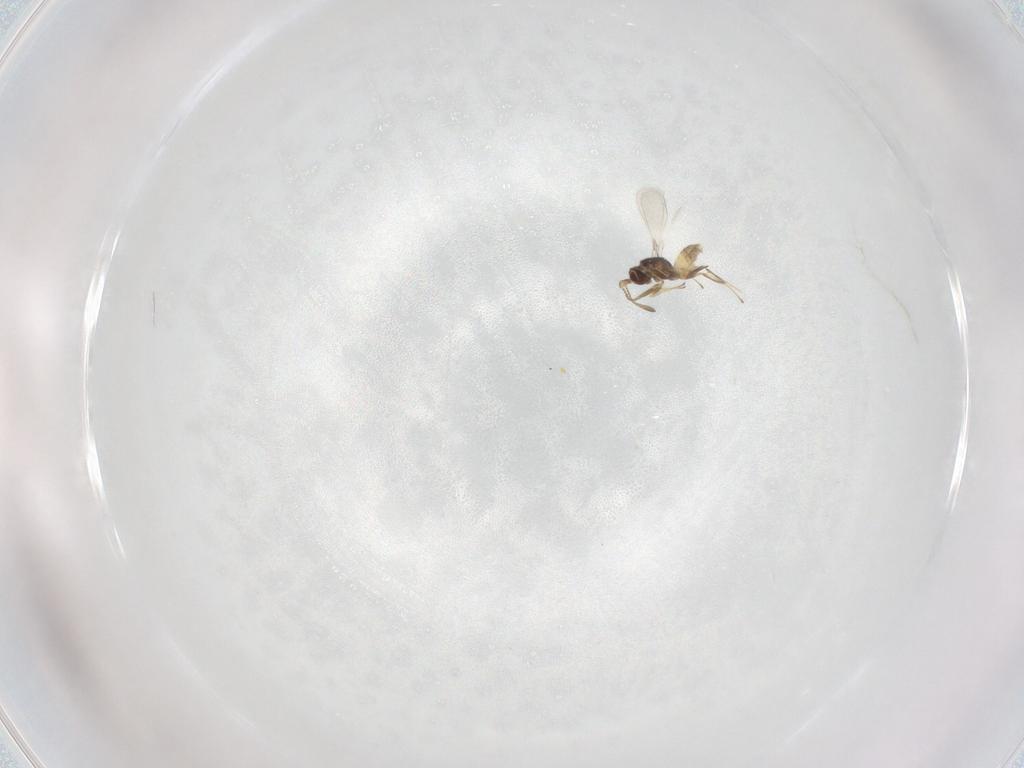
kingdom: Animalia
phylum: Arthropoda
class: Insecta
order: Hymenoptera
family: Mymaridae
